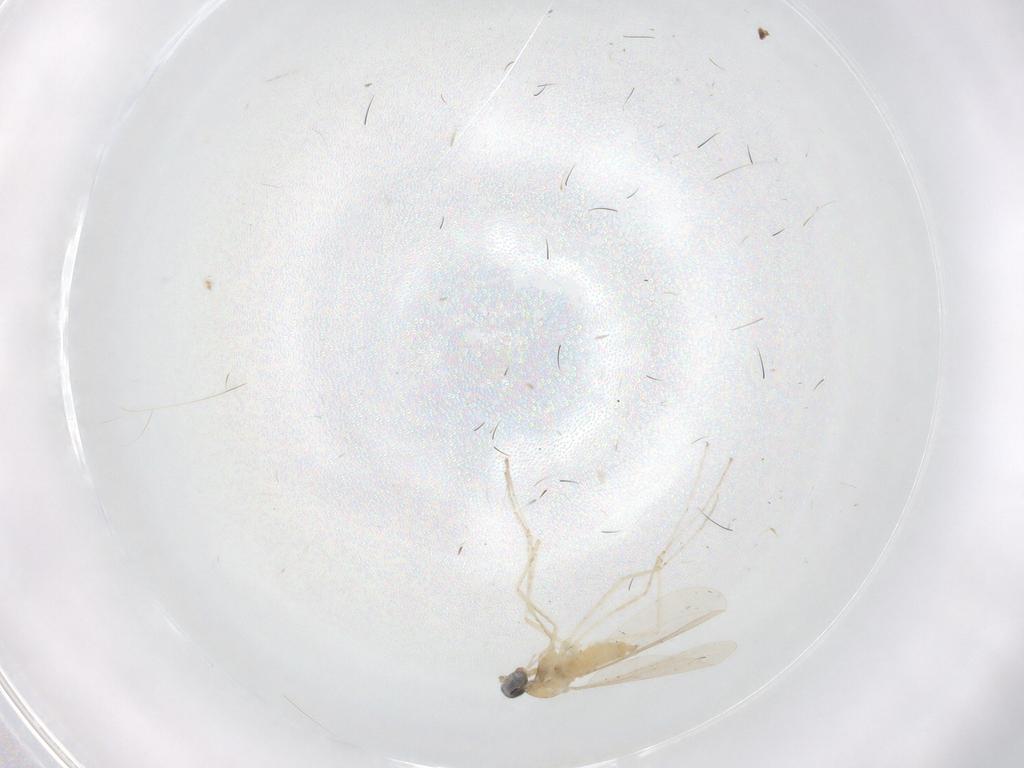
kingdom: Animalia
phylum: Arthropoda
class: Insecta
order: Diptera
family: Cecidomyiidae
